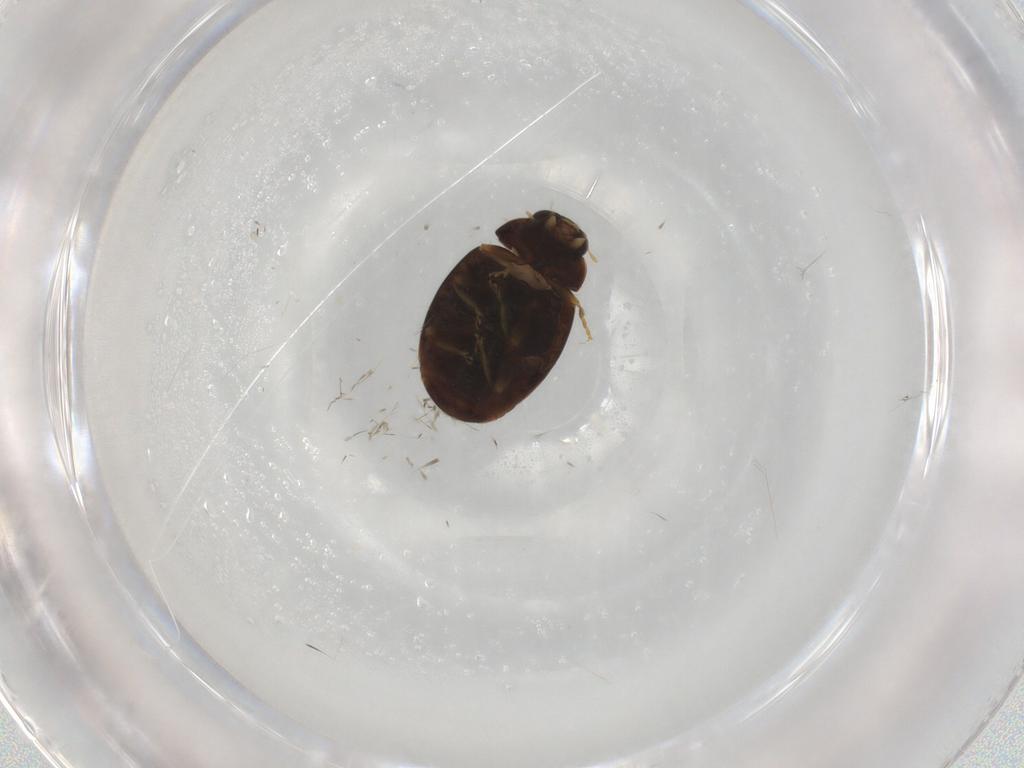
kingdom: Animalia
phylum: Arthropoda
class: Insecta
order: Coleoptera
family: Coccinellidae
